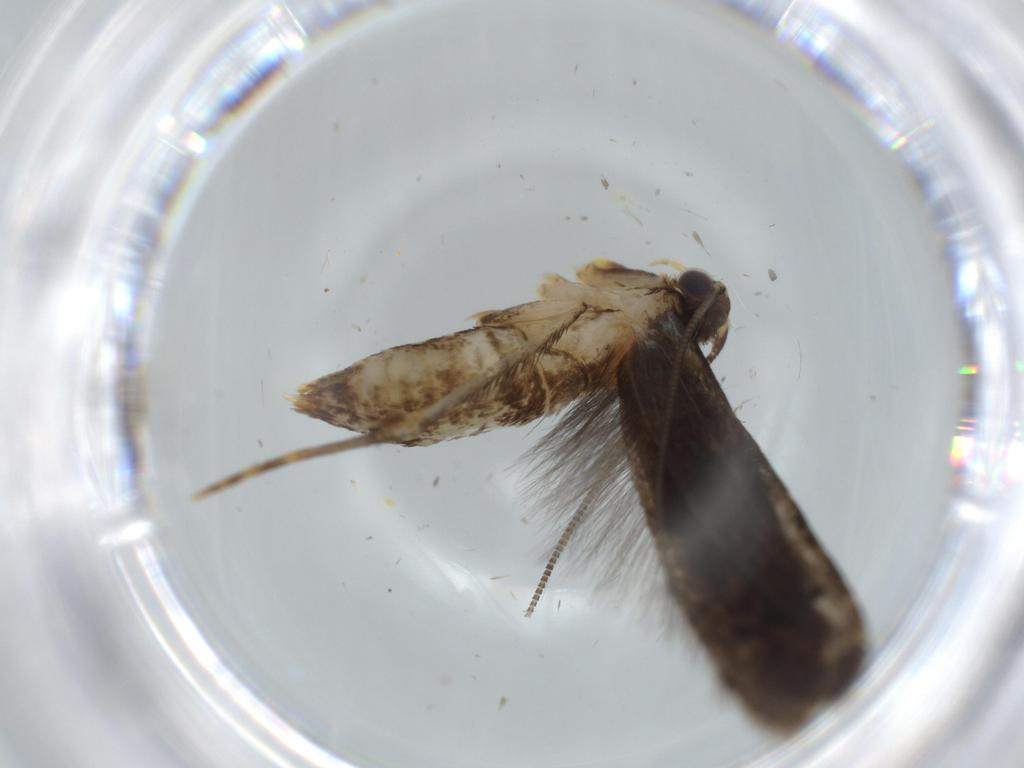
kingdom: Animalia
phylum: Arthropoda
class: Insecta
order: Lepidoptera
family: Tineidae
